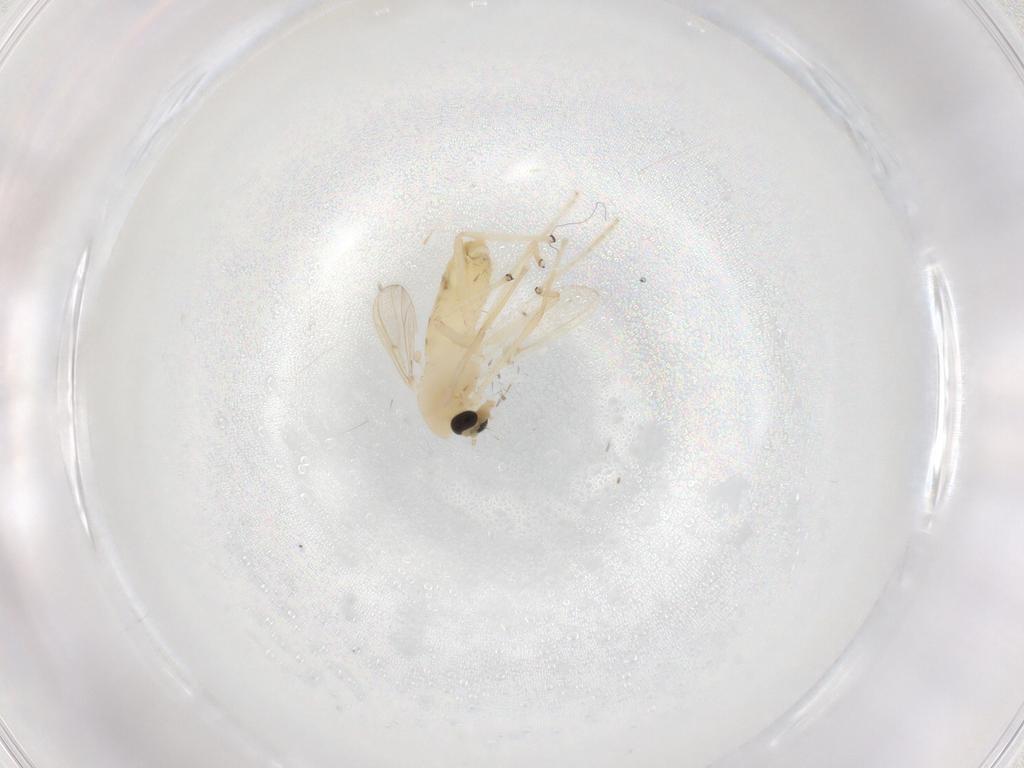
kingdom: Animalia
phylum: Arthropoda
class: Insecta
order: Diptera
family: Chironomidae
